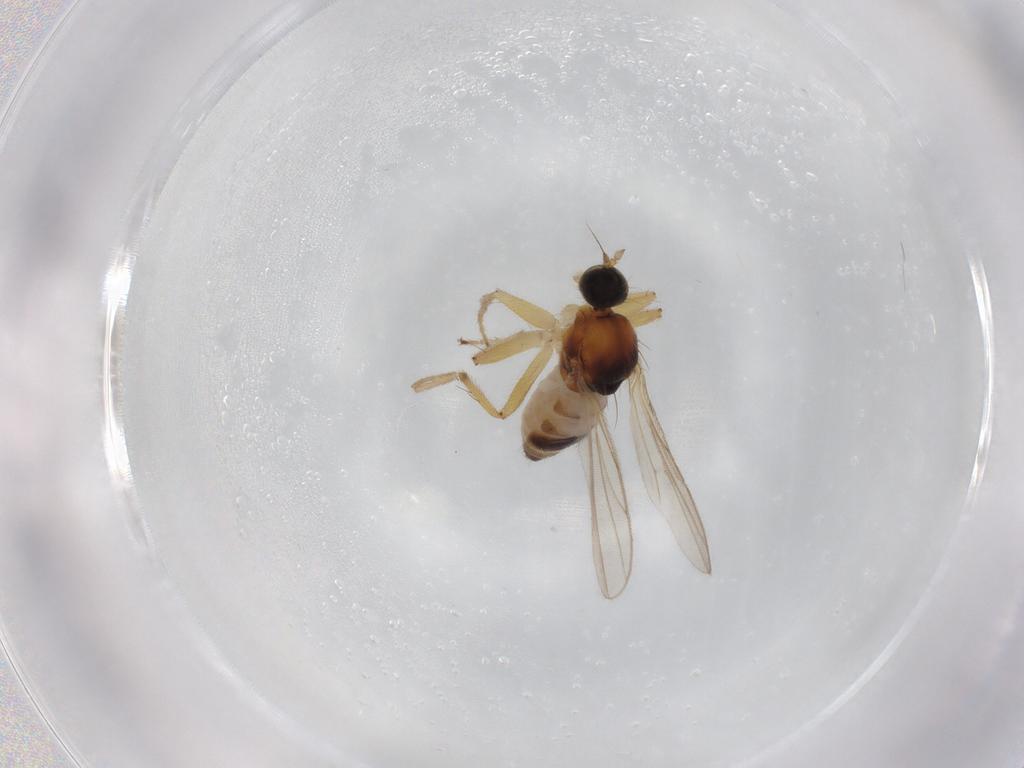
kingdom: Animalia
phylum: Arthropoda
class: Insecta
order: Diptera
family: Hybotidae
